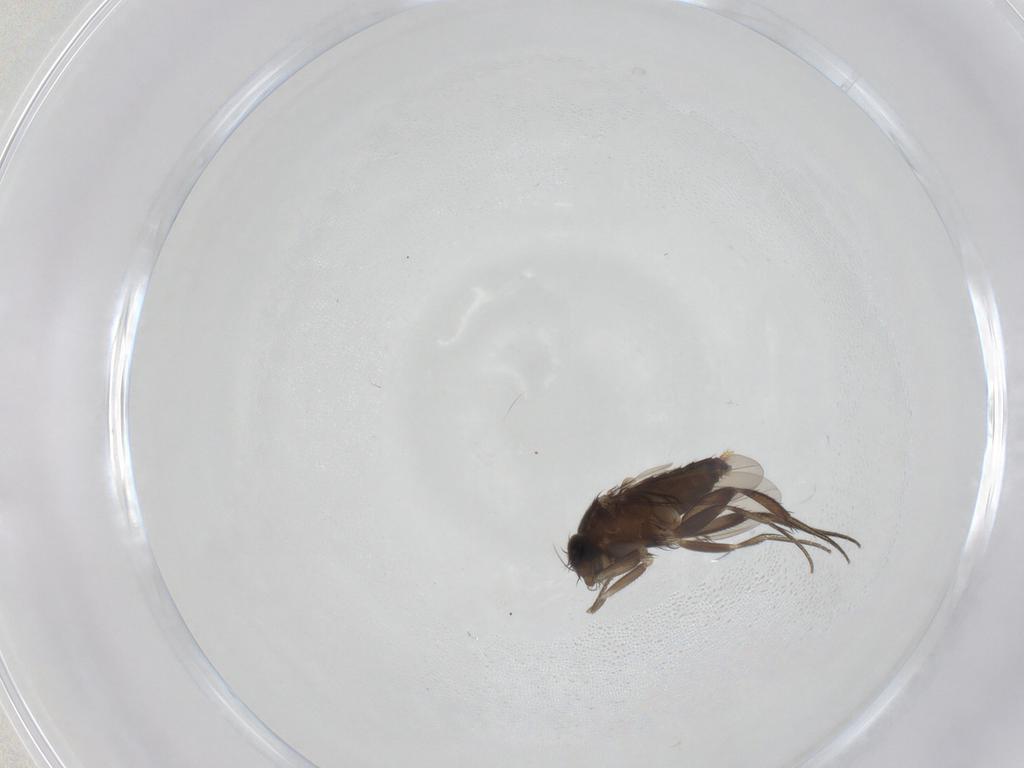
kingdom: Animalia
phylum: Arthropoda
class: Insecta
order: Diptera
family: Phoridae
